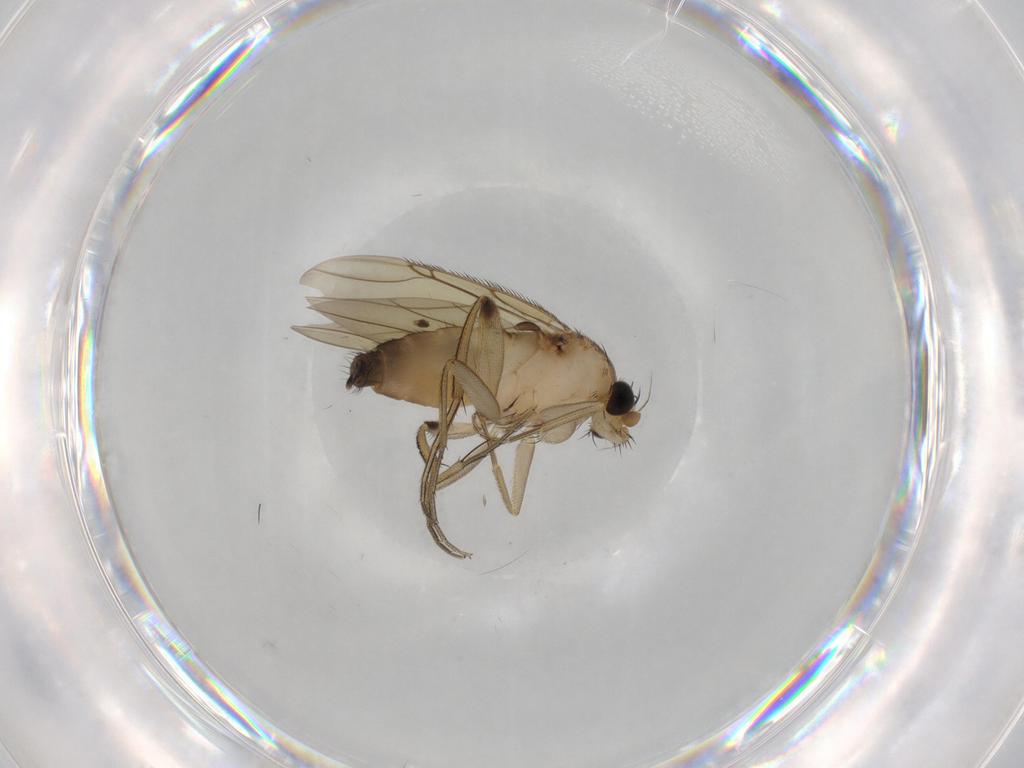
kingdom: Animalia
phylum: Arthropoda
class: Insecta
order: Diptera
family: Phoridae
